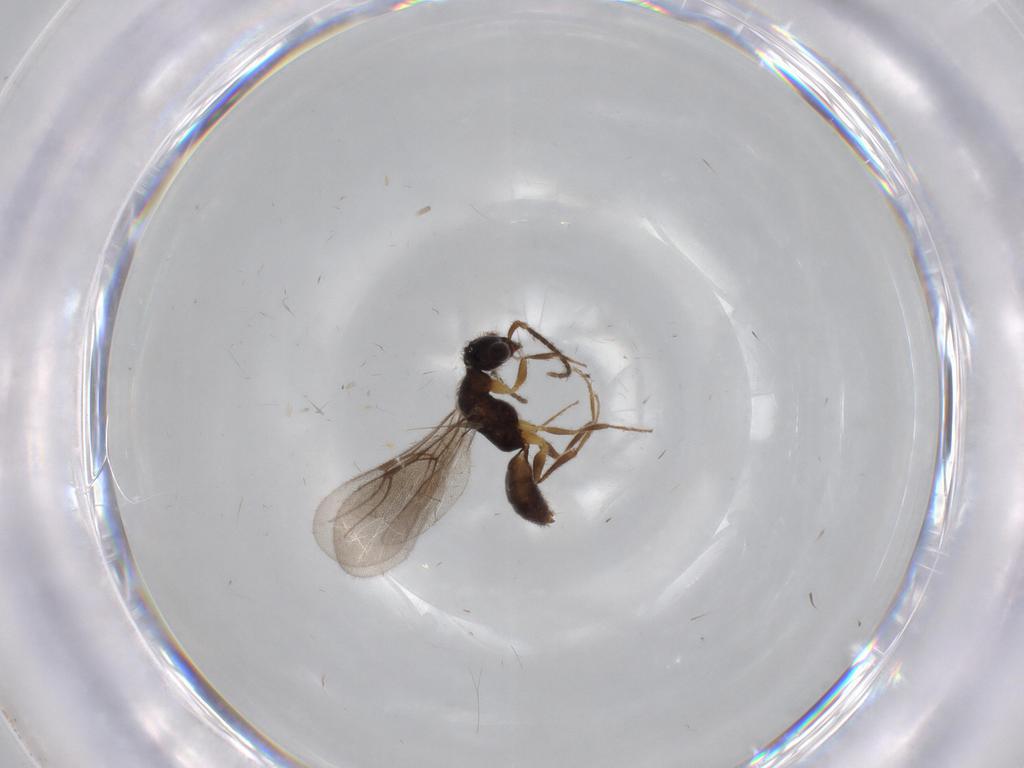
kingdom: Animalia
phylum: Arthropoda
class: Insecta
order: Hymenoptera
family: Bethylidae
